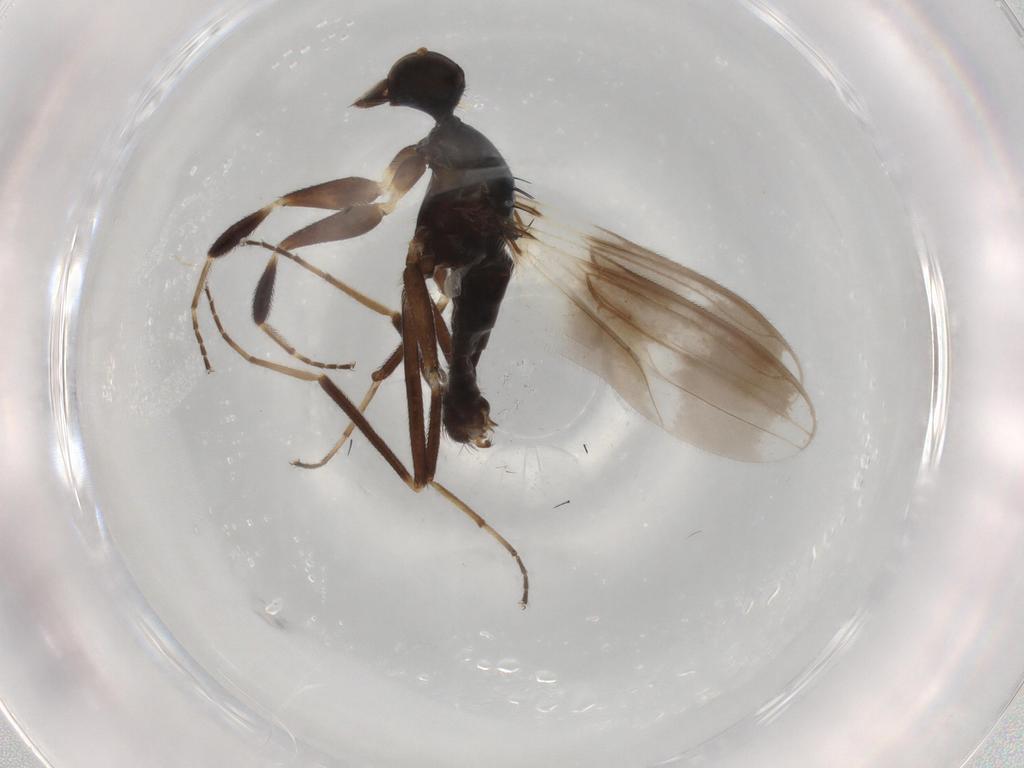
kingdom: Animalia
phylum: Arthropoda
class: Insecta
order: Diptera
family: Hybotidae
